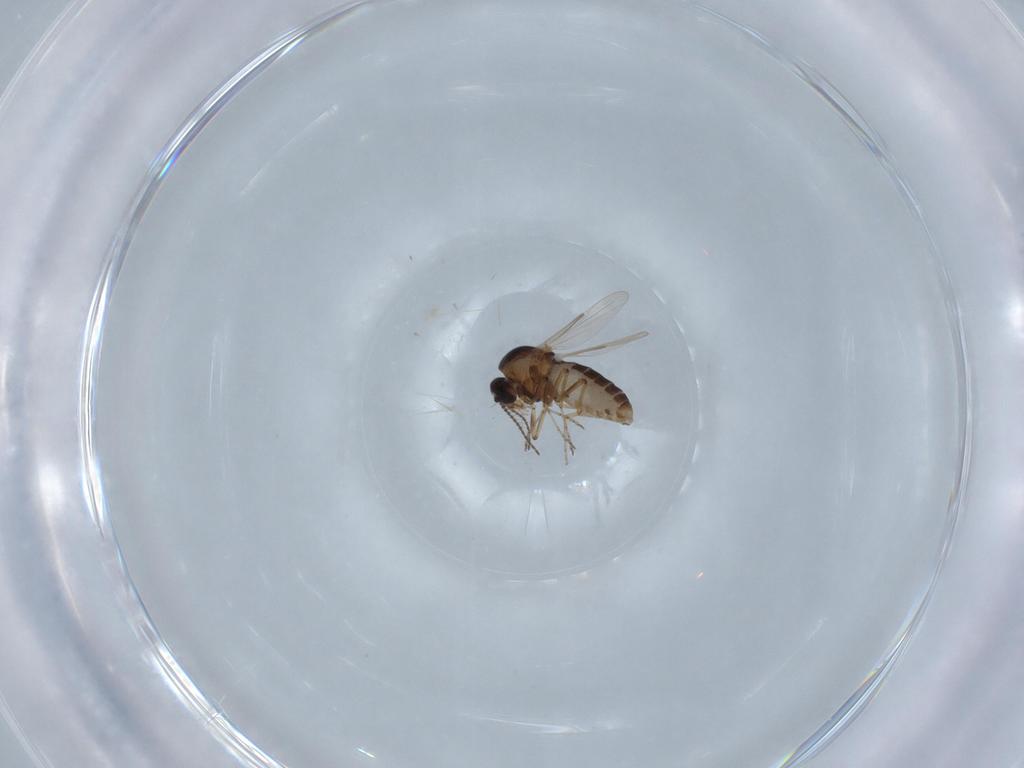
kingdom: Animalia
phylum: Arthropoda
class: Insecta
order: Diptera
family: Ceratopogonidae
